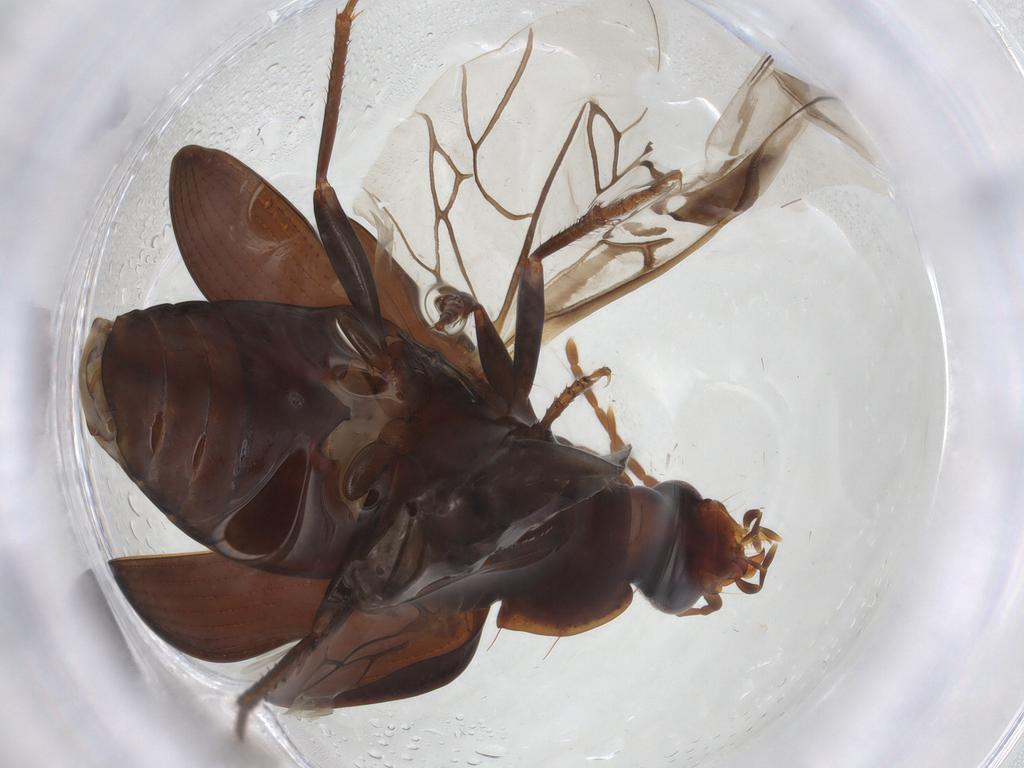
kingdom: Animalia
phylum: Arthropoda
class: Insecta
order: Coleoptera
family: Carabidae
